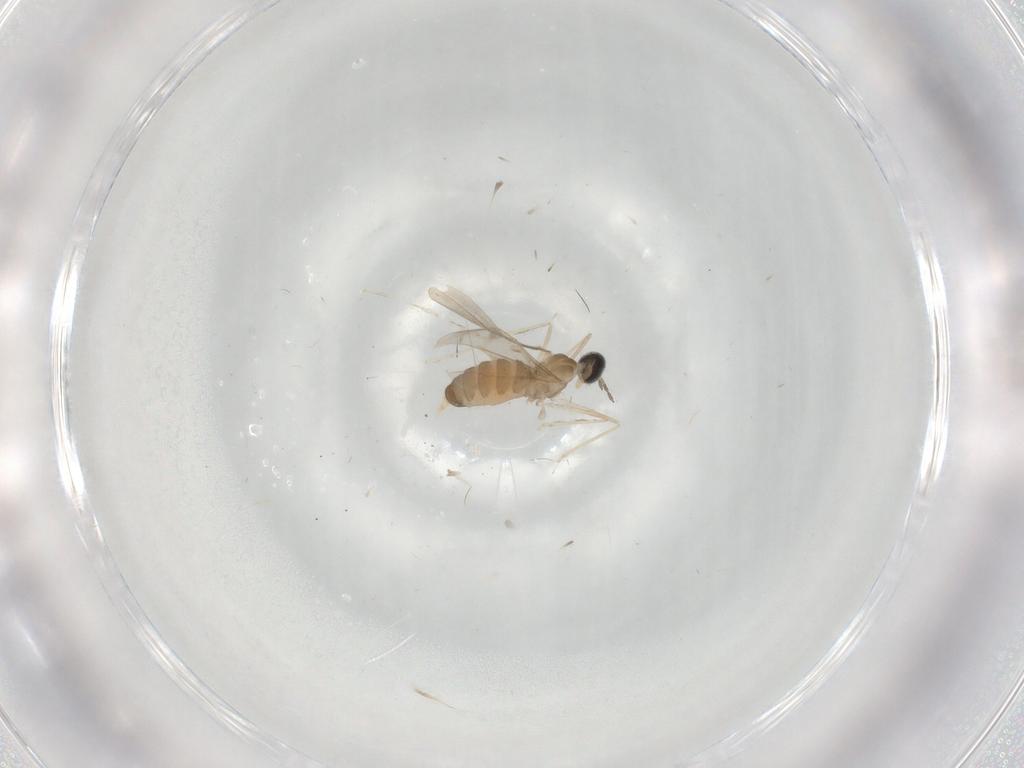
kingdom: Animalia
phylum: Arthropoda
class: Insecta
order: Diptera
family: Cecidomyiidae
